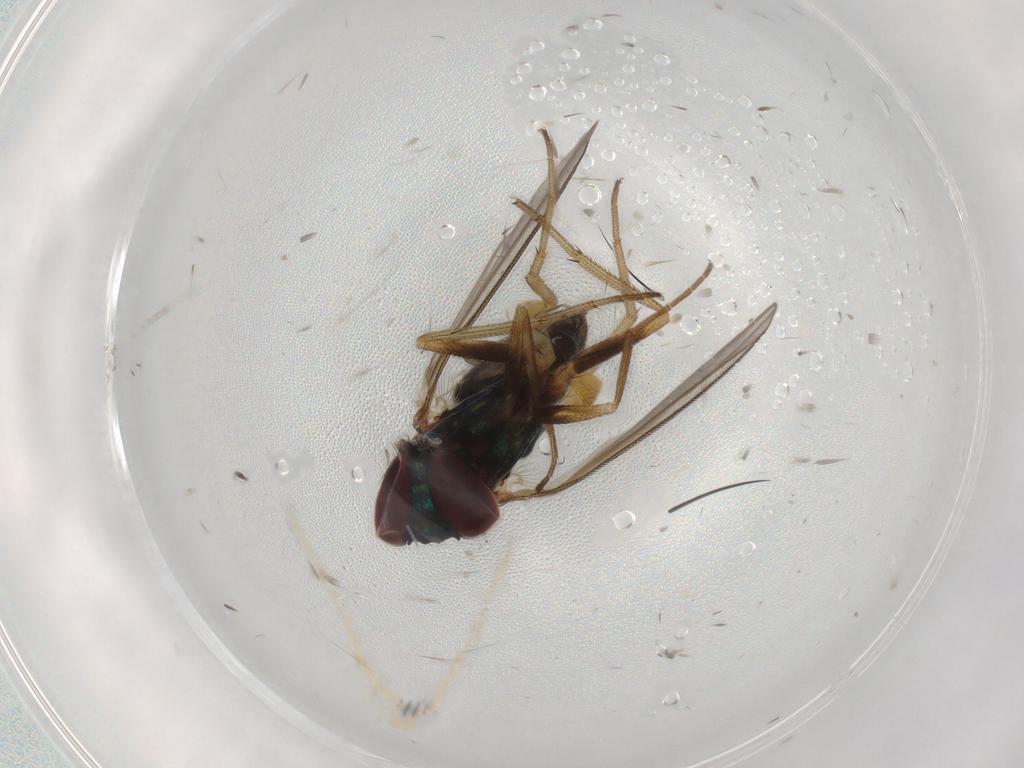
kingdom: Animalia
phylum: Arthropoda
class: Insecta
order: Diptera
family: Dolichopodidae
